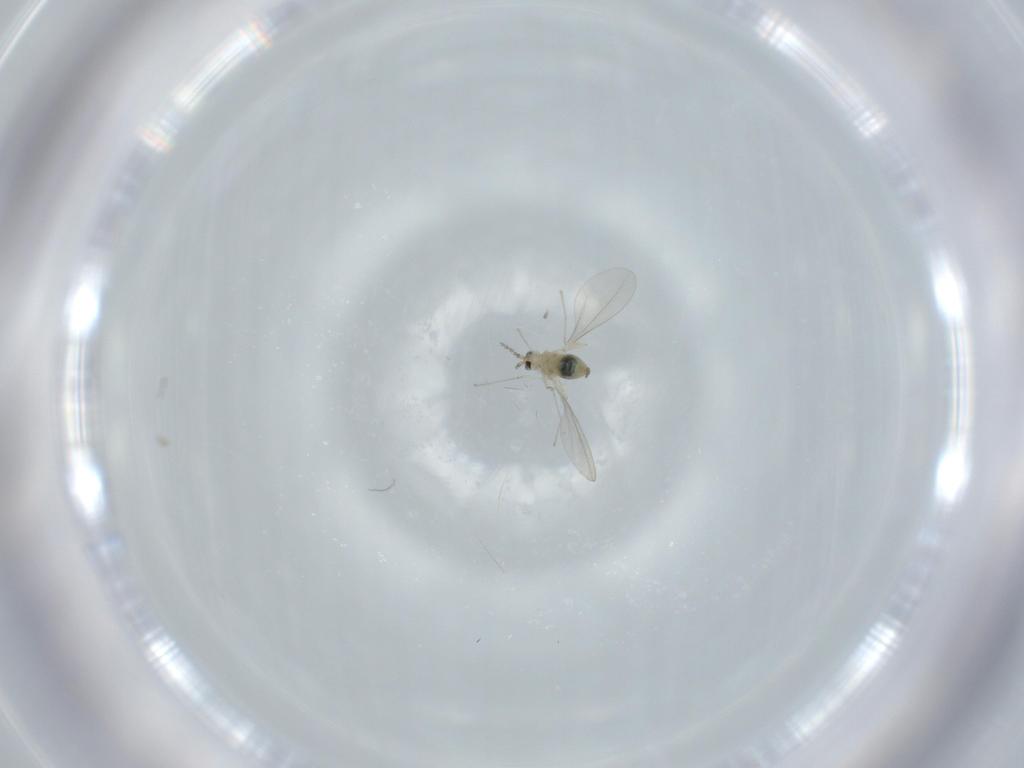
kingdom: Animalia
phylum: Arthropoda
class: Insecta
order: Diptera
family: Cecidomyiidae
